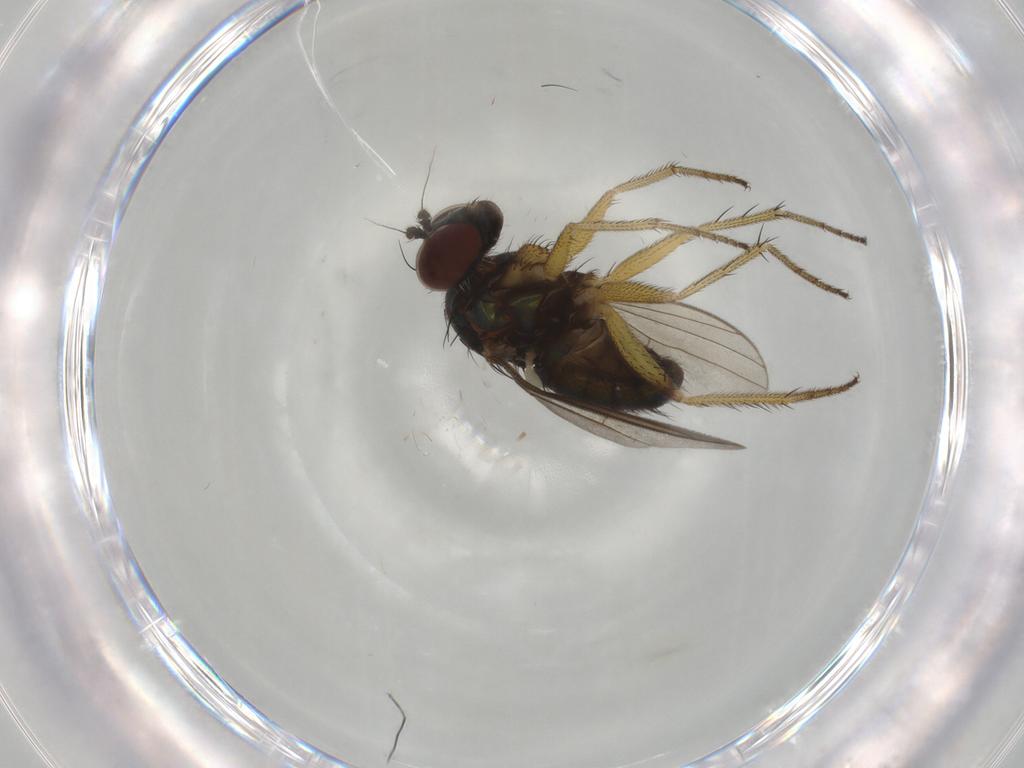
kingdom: Animalia
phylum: Arthropoda
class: Insecta
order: Diptera
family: Dolichopodidae
